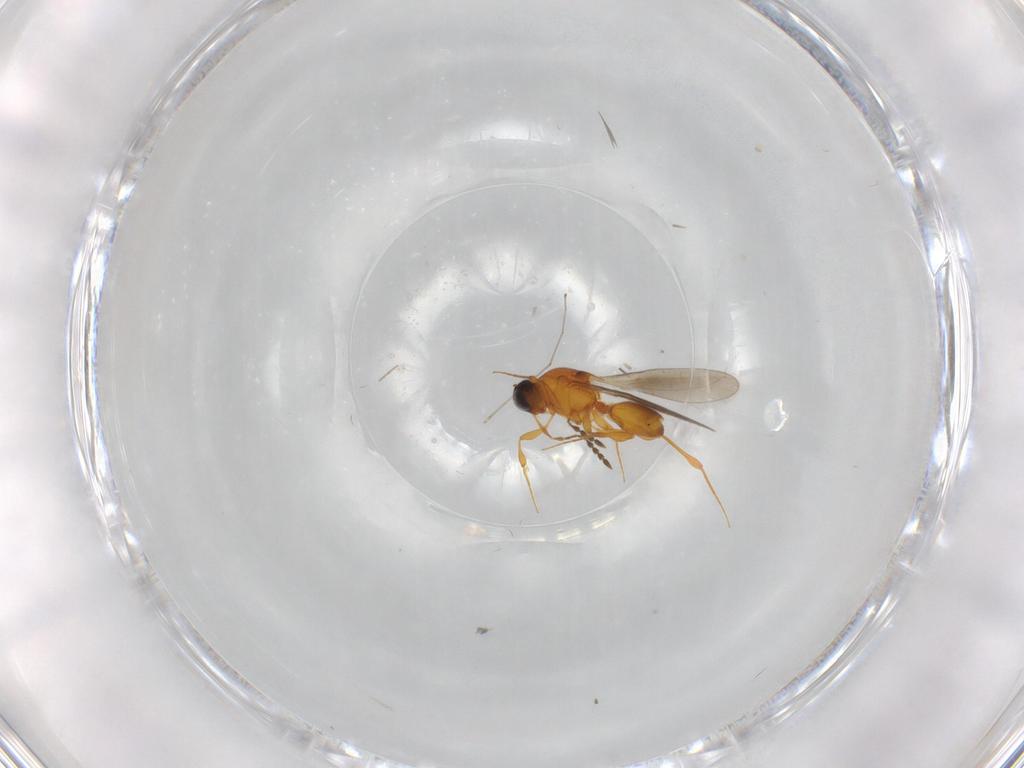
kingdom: Animalia
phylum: Arthropoda
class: Insecta
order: Hymenoptera
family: Platygastridae
